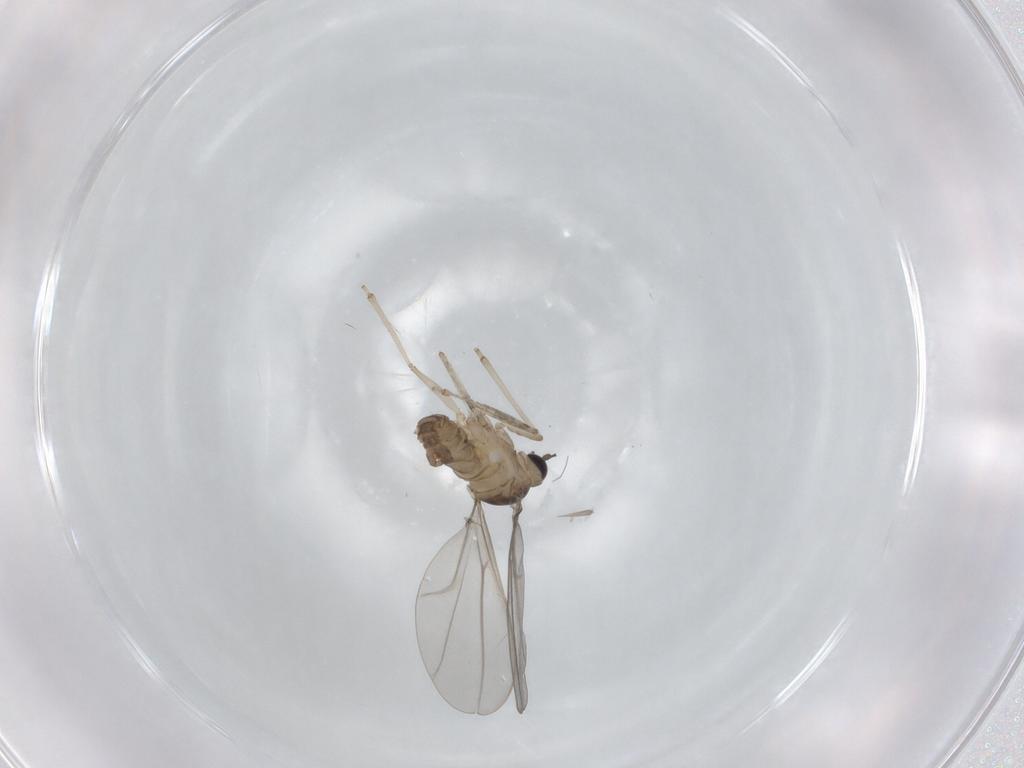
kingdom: Animalia
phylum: Arthropoda
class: Insecta
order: Diptera
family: Cecidomyiidae
